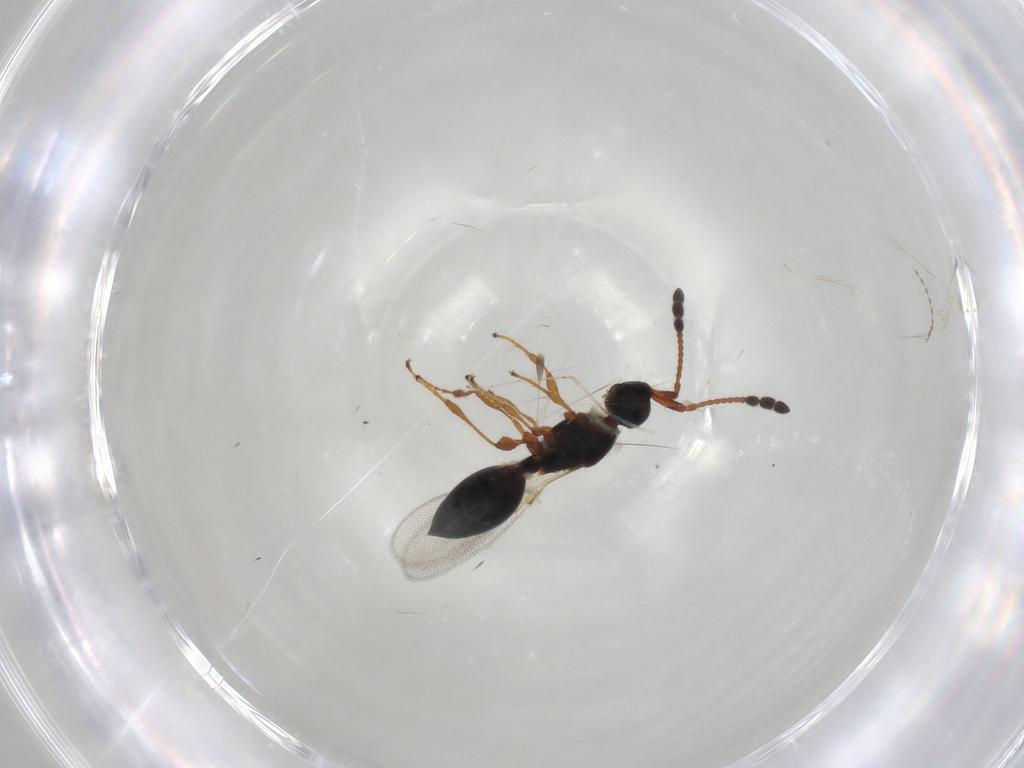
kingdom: Animalia
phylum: Arthropoda
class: Insecta
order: Hymenoptera
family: Diapriidae
